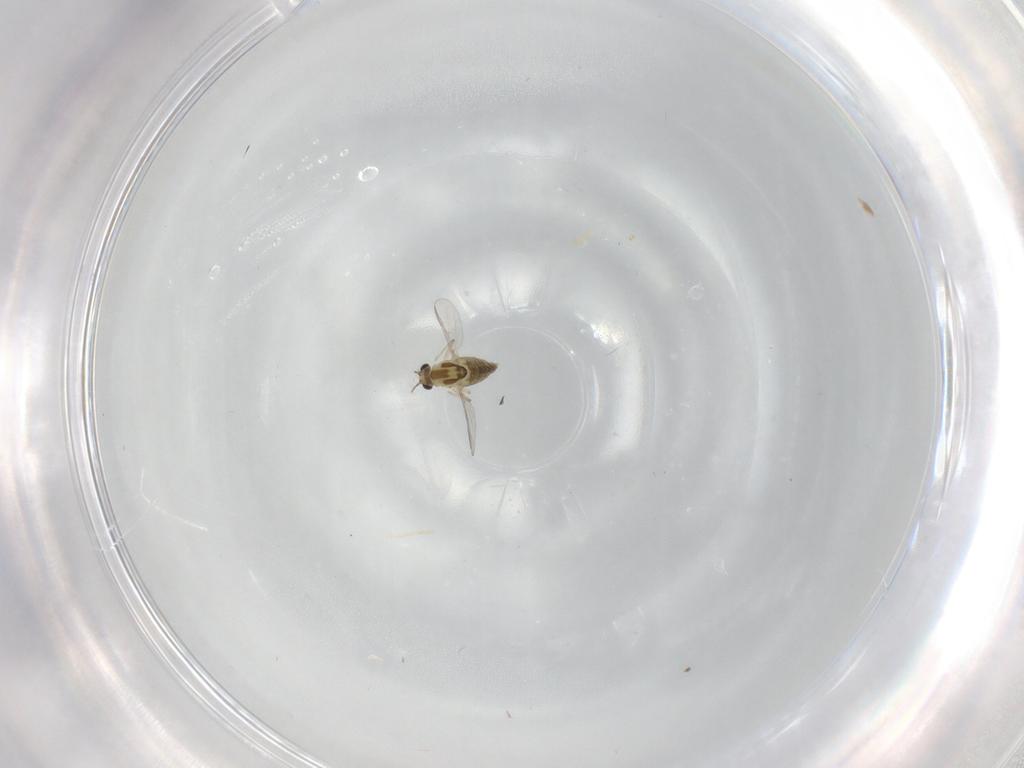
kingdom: Animalia
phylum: Arthropoda
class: Insecta
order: Diptera
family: Chironomidae
